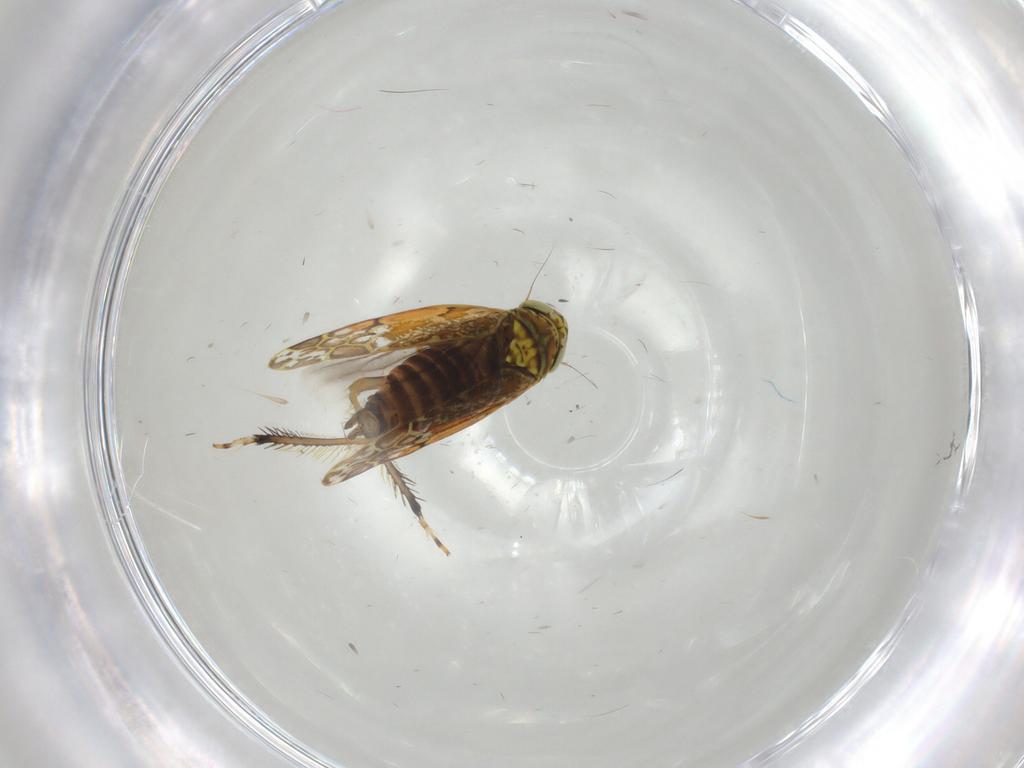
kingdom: Animalia
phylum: Arthropoda
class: Insecta
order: Hemiptera
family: Cicadellidae
